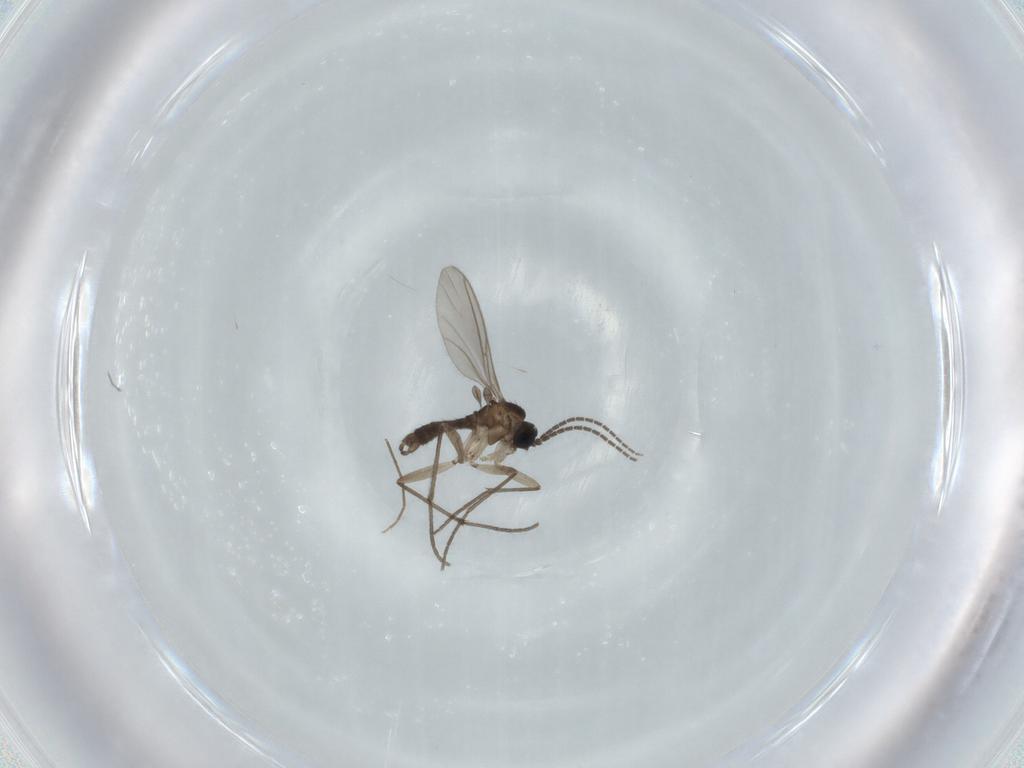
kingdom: Animalia
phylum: Arthropoda
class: Insecta
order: Diptera
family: Sciaridae
